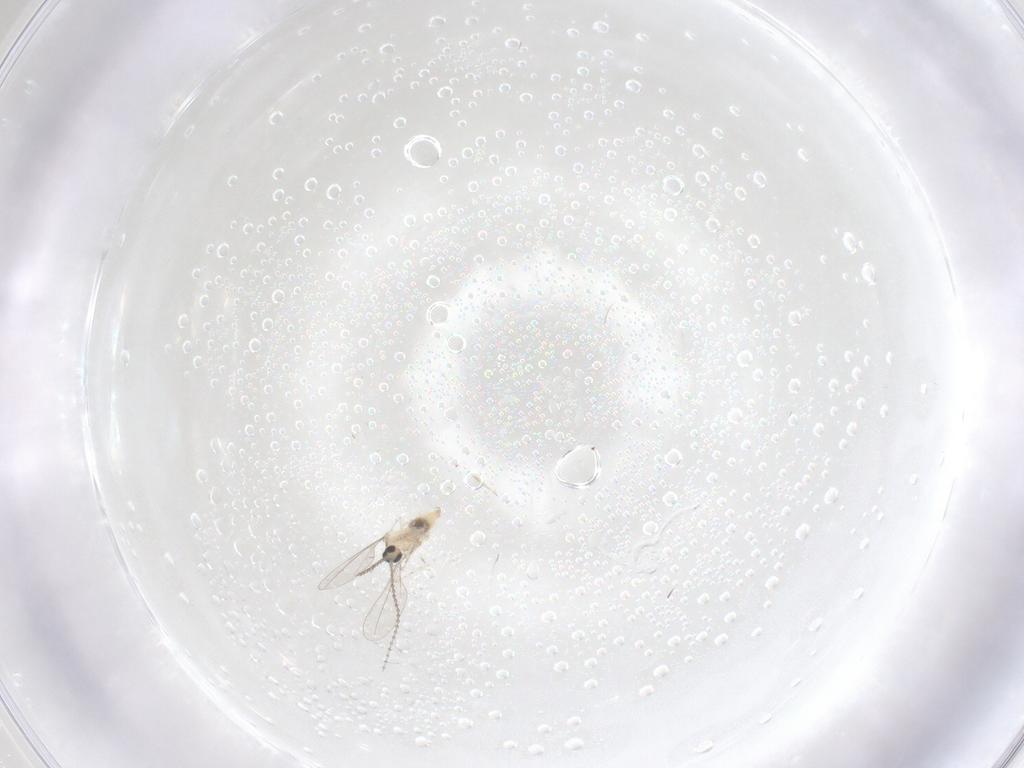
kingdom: Animalia
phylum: Arthropoda
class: Insecta
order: Diptera
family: Cecidomyiidae
